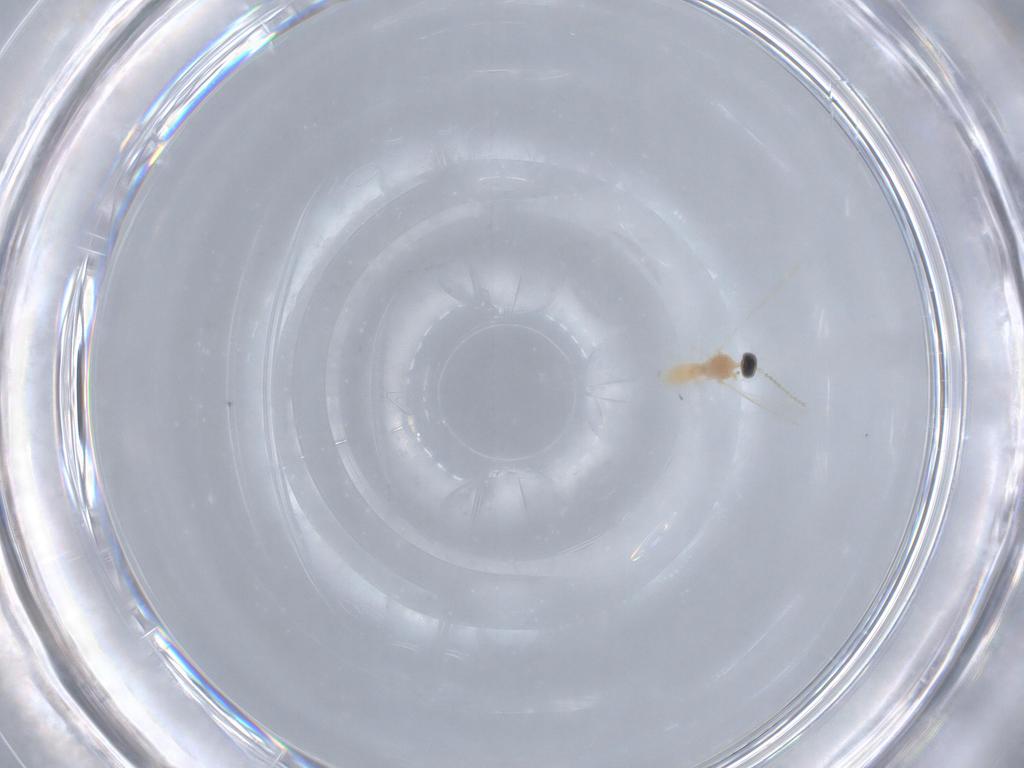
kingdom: Animalia
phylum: Arthropoda
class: Insecta
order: Diptera
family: Cecidomyiidae
